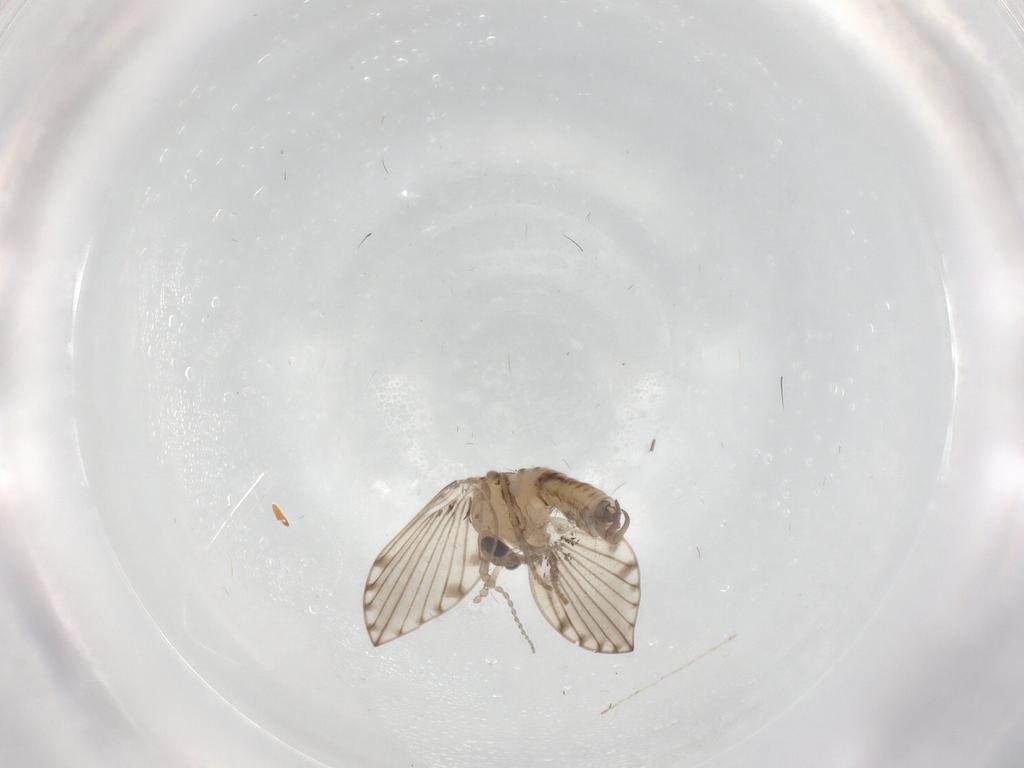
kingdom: Animalia
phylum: Arthropoda
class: Insecta
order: Diptera
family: Psychodidae
